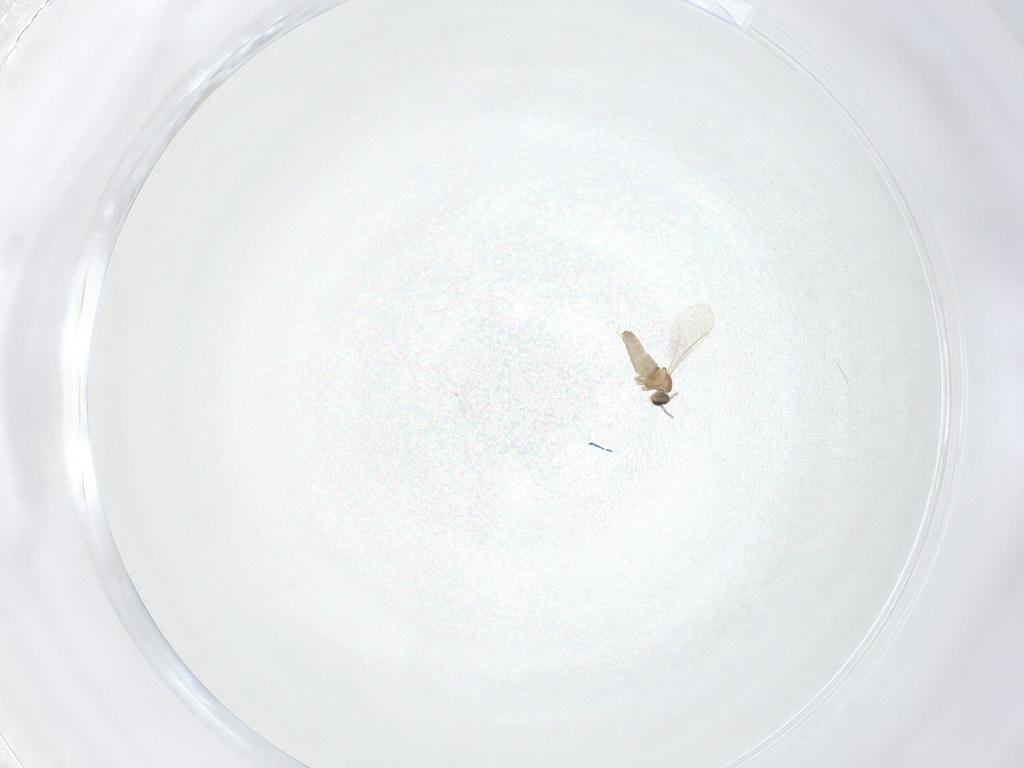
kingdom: Animalia
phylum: Arthropoda
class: Insecta
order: Diptera
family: Cecidomyiidae
